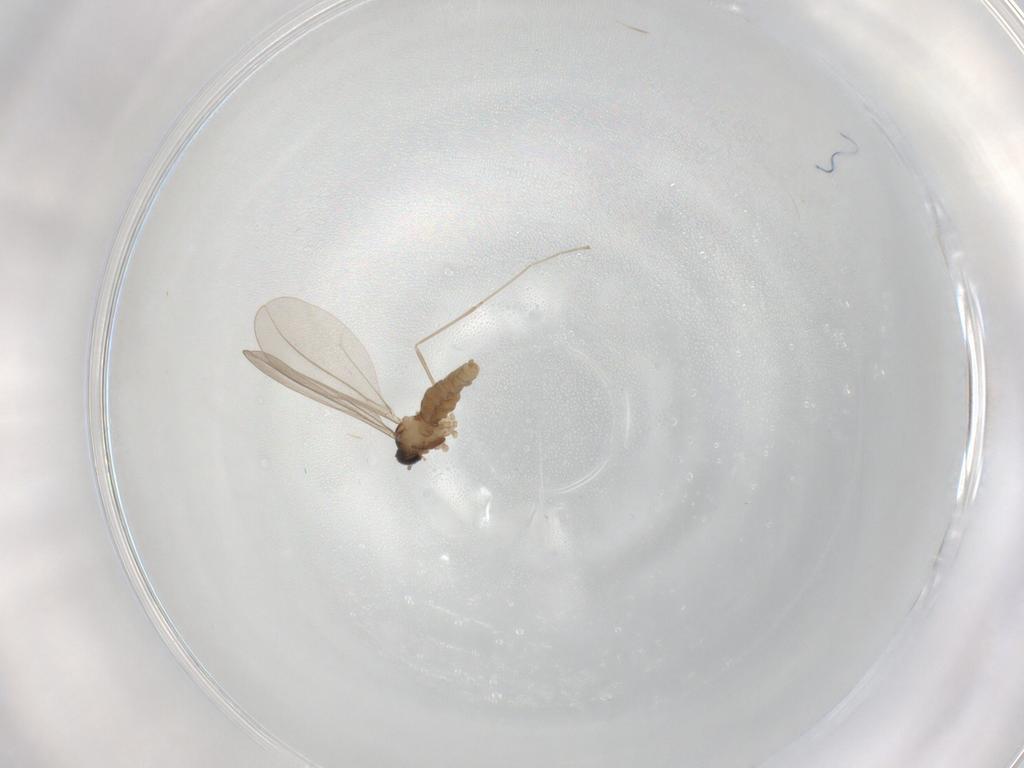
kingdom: Animalia
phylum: Arthropoda
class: Insecta
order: Diptera
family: Cecidomyiidae
